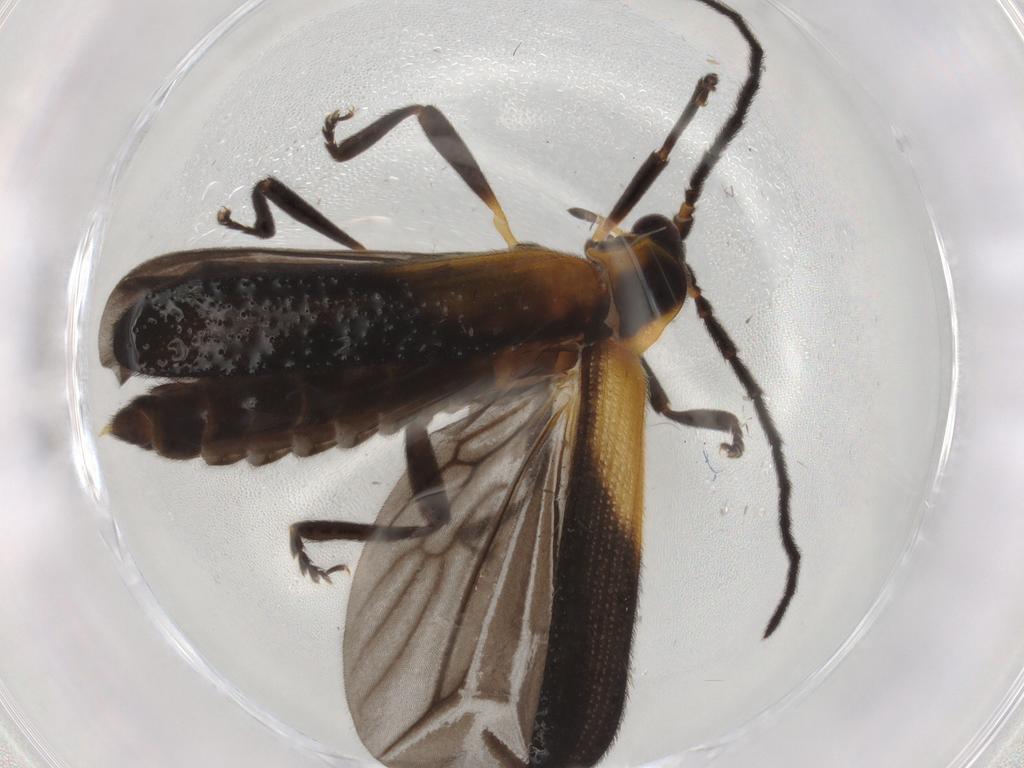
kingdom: Animalia
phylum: Arthropoda
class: Insecta
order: Coleoptera
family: Lycidae
